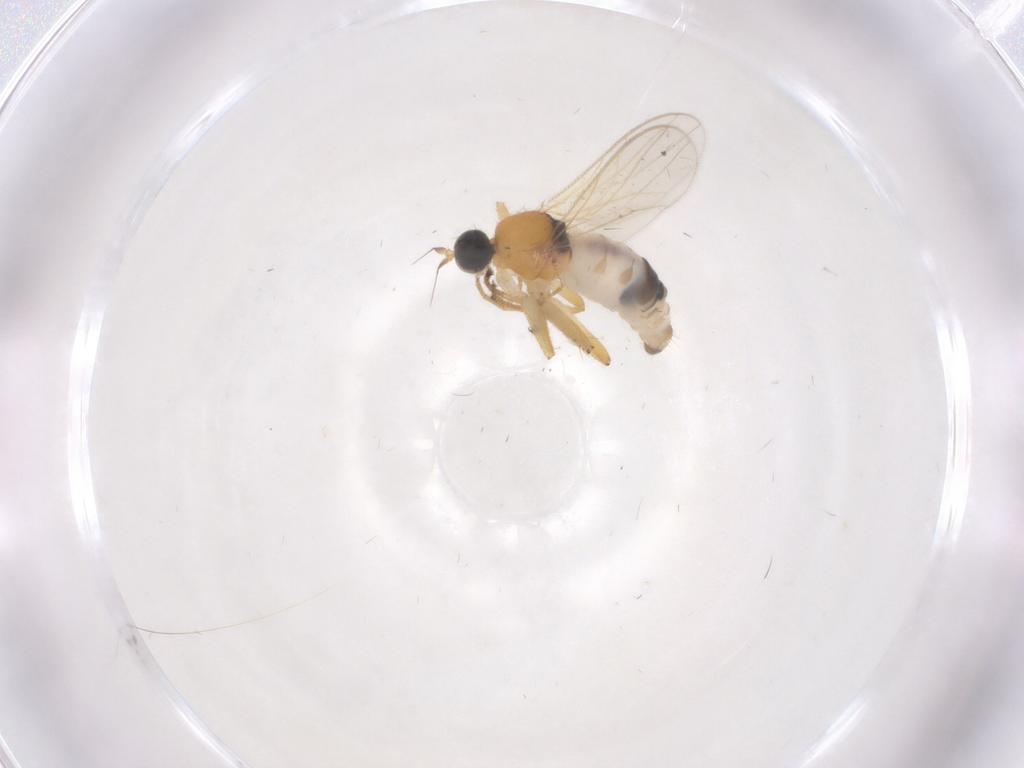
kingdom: Animalia
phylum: Arthropoda
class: Insecta
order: Diptera
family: Hybotidae
